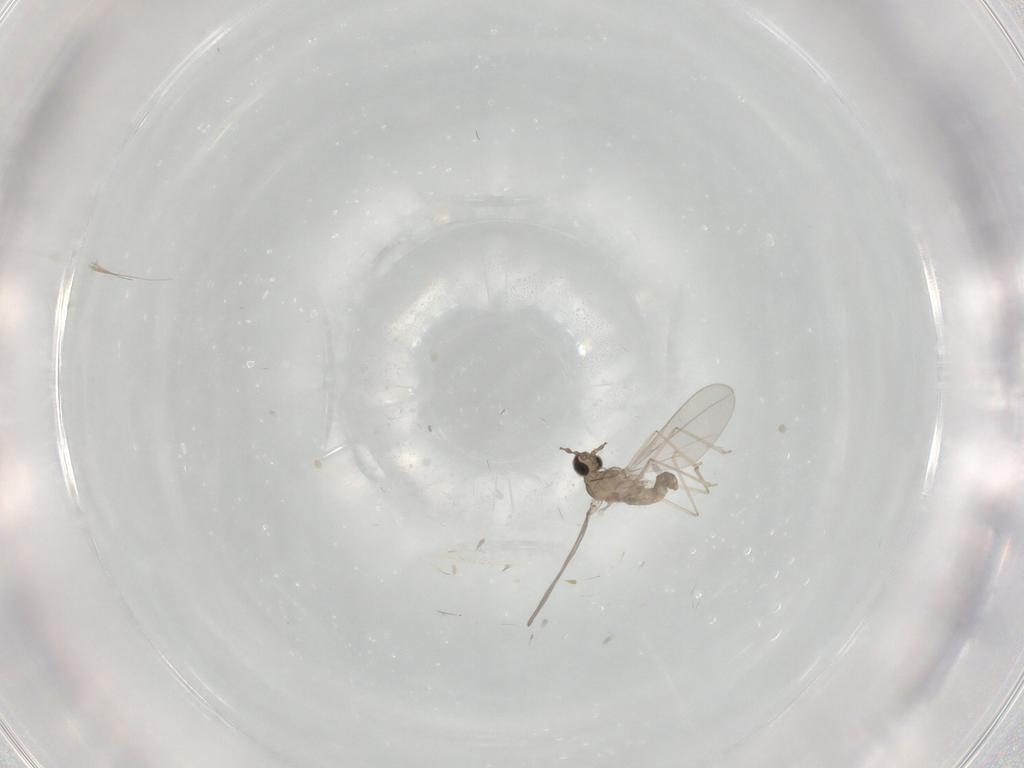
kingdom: Animalia
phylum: Arthropoda
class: Insecta
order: Diptera
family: Cecidomyiidae
